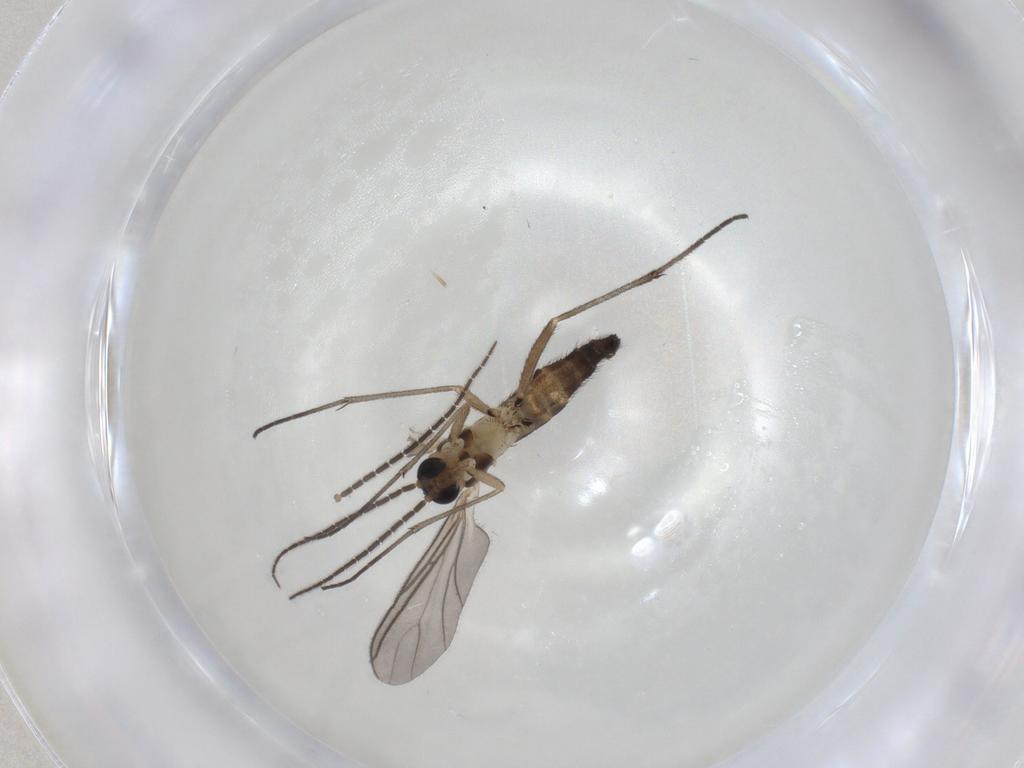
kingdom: Animalia
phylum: Arthropoda
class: Insecta
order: Diptera
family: Sciaridae
